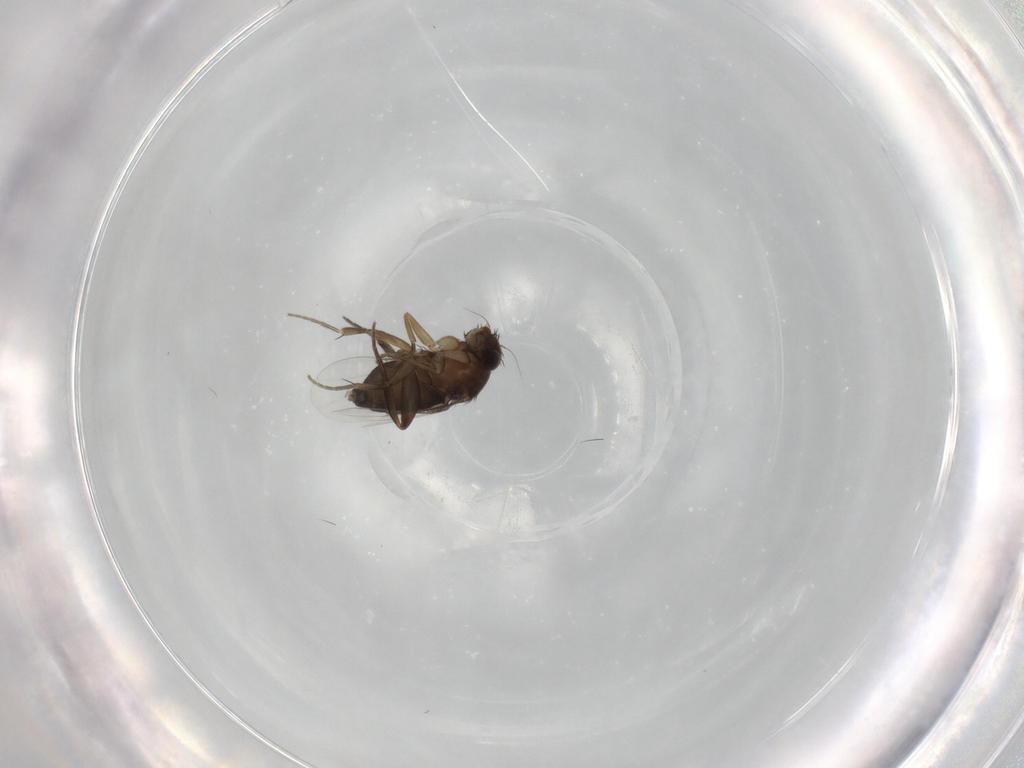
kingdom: Animalia
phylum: Arthropoda
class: Insecta
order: Diptera
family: Phoridae
